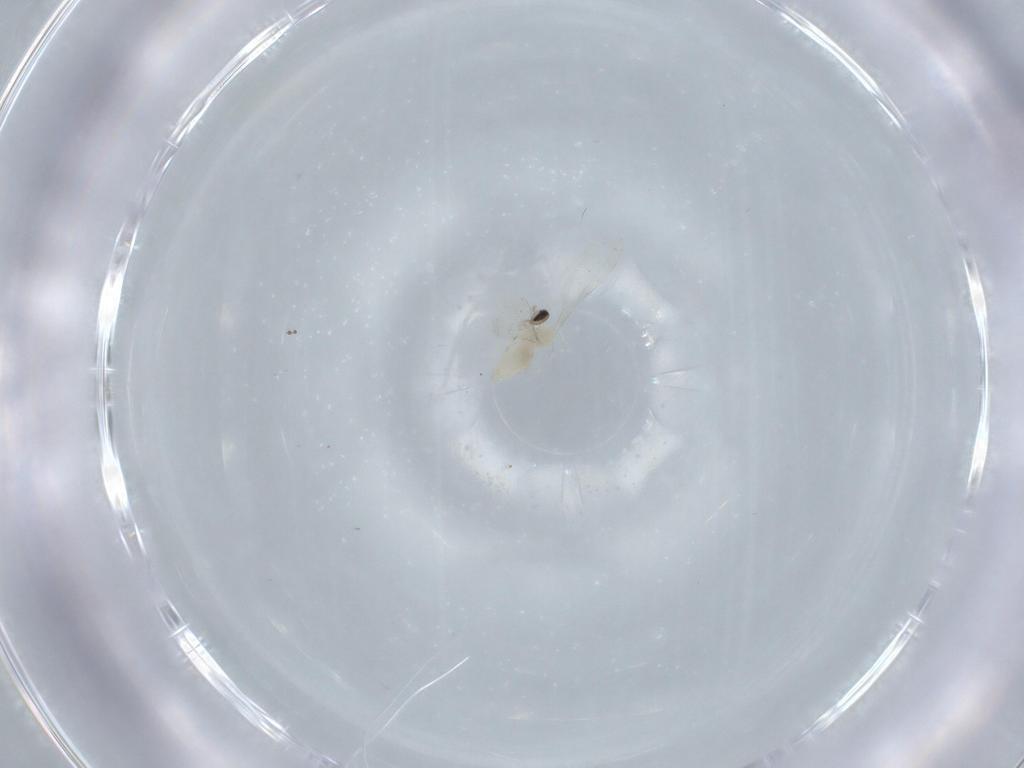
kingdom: Animalia
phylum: Arthropoda
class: Insecta
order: Diptera
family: Cecidomyiidae
